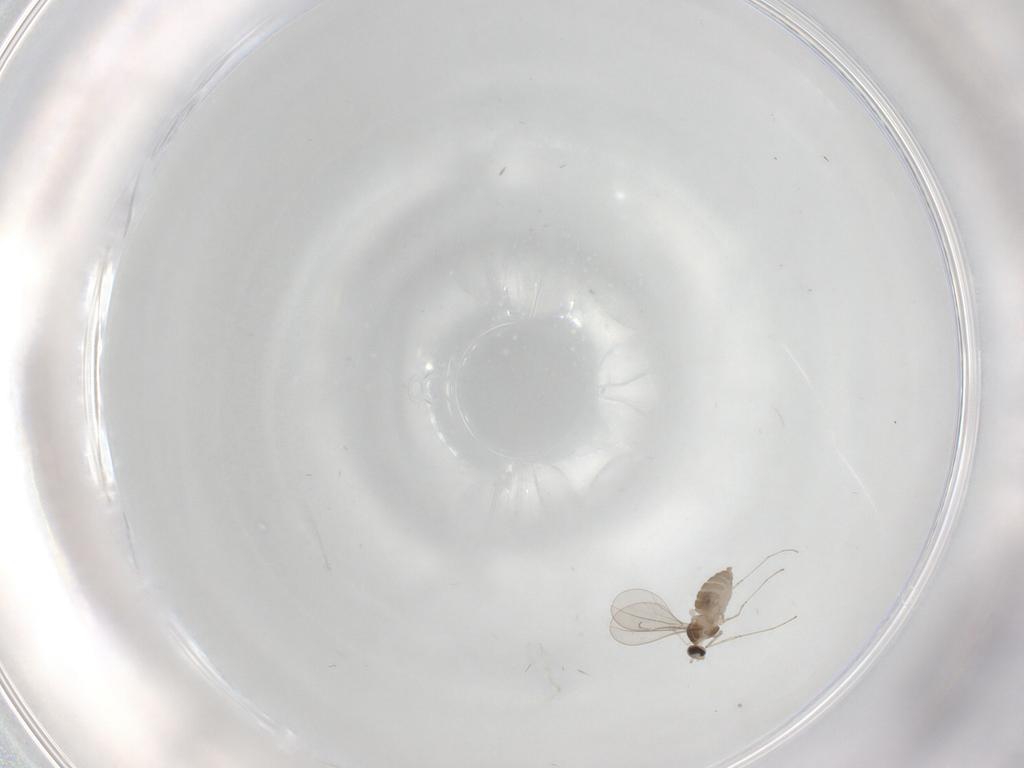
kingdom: Animalia
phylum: Arthropoda
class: Insecta
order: Diptera
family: Cecidomyiidae
